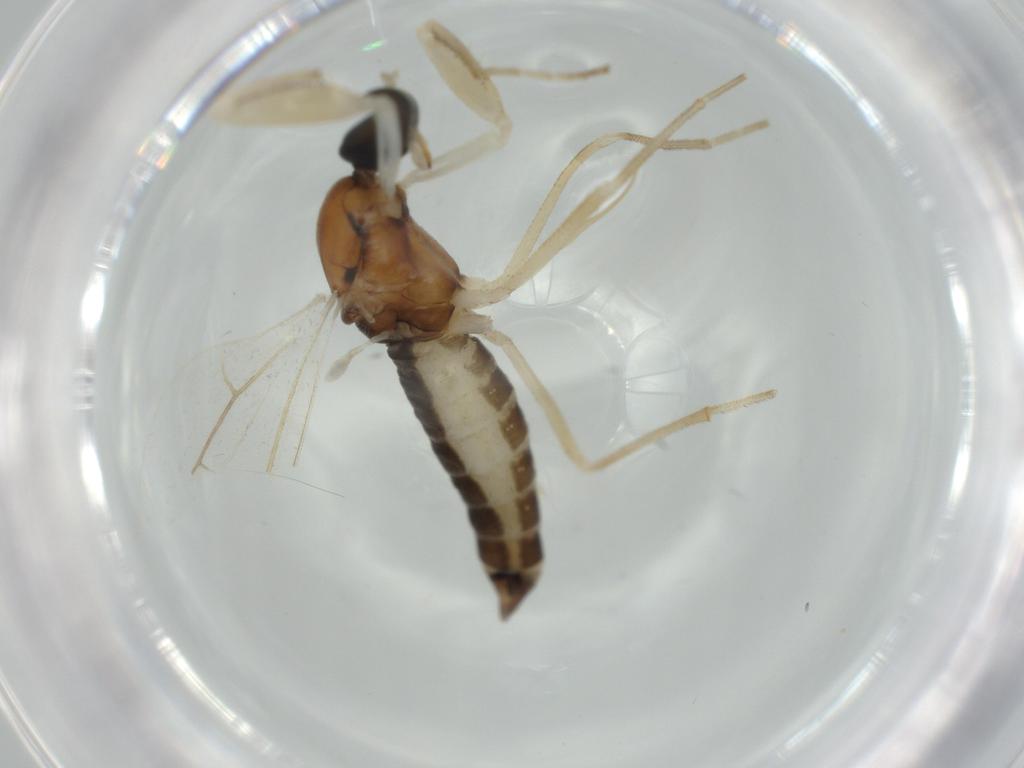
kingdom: Animalia
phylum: Arthropoda
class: Insecta
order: Diptera
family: Empididae
